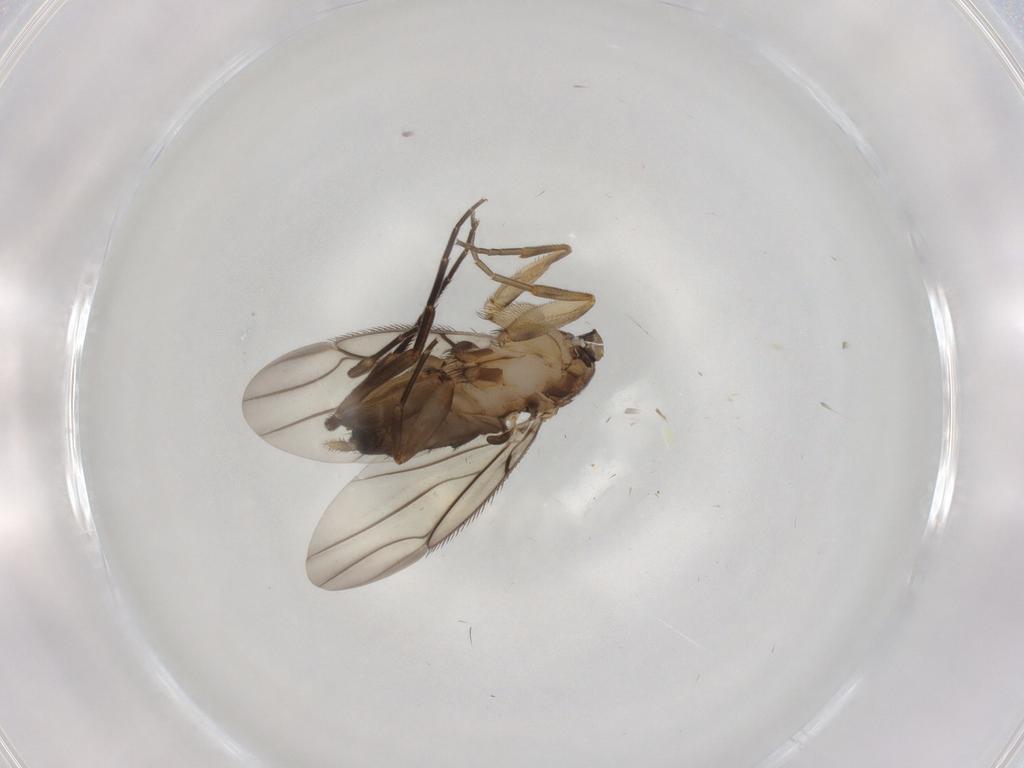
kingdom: Animalia
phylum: Arthropoda
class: Insecta
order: Diptera
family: Phoridae
